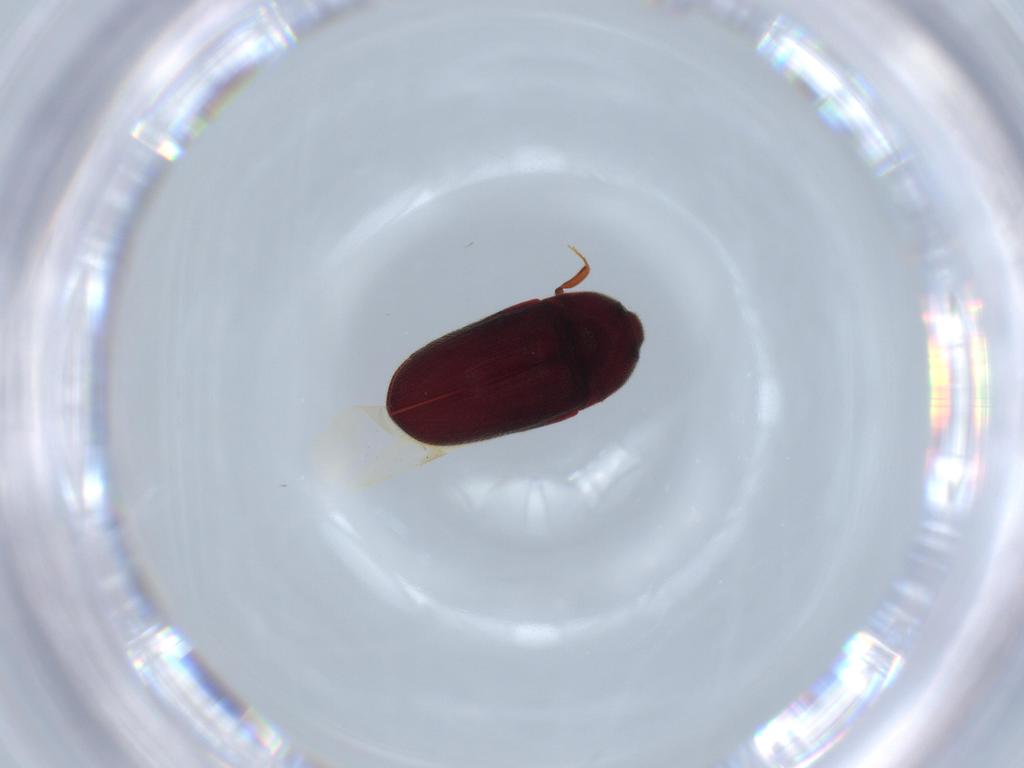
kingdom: Animalia
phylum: Arthropoda
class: Insecta
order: Coleoptera
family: Throscidae
